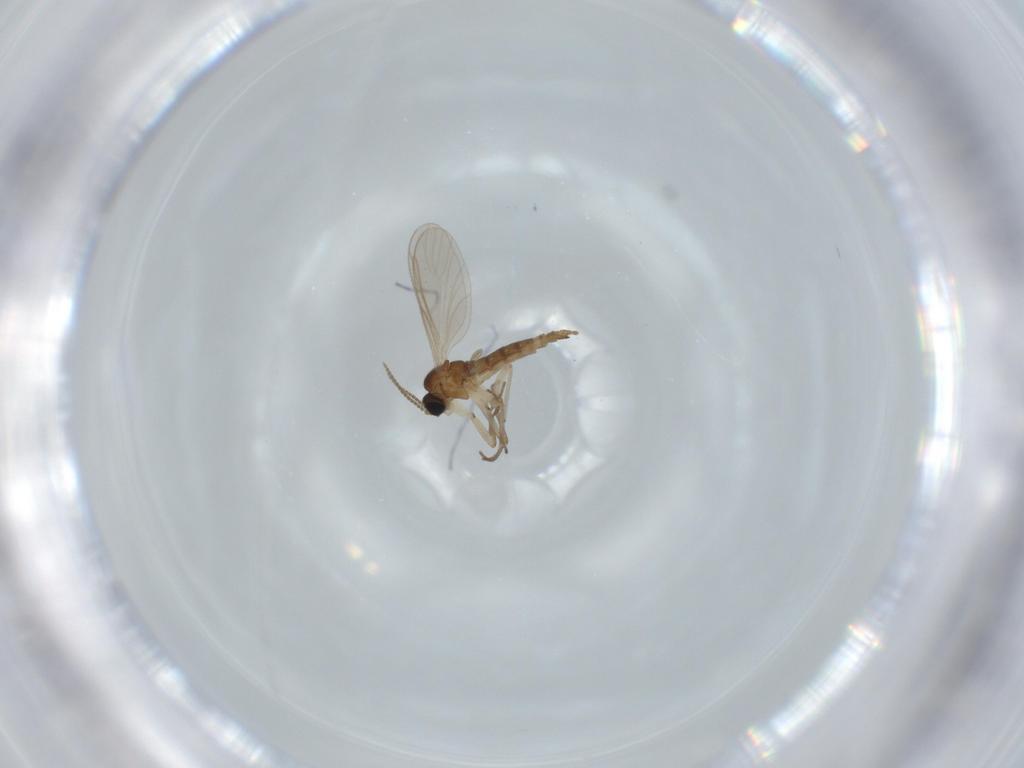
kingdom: Animalia
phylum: Arthropoda
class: Insecta
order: Diptera
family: Sciaridae
